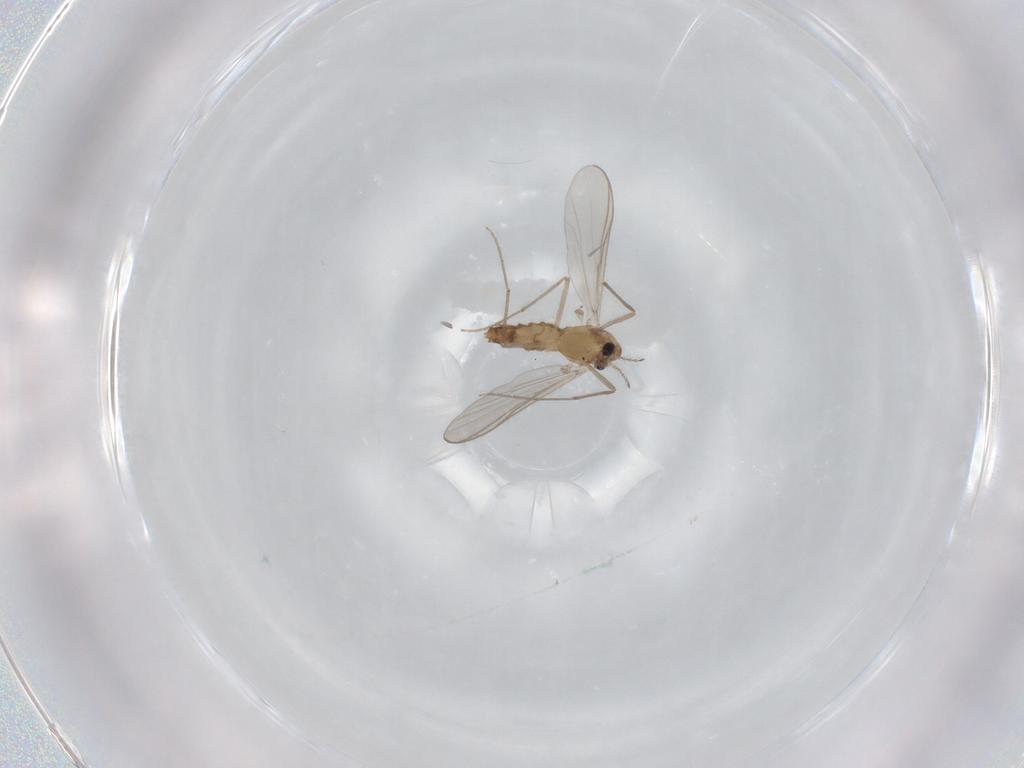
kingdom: Animalia
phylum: Arthropoda
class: Insecta
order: Diptera
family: Chironomidae
